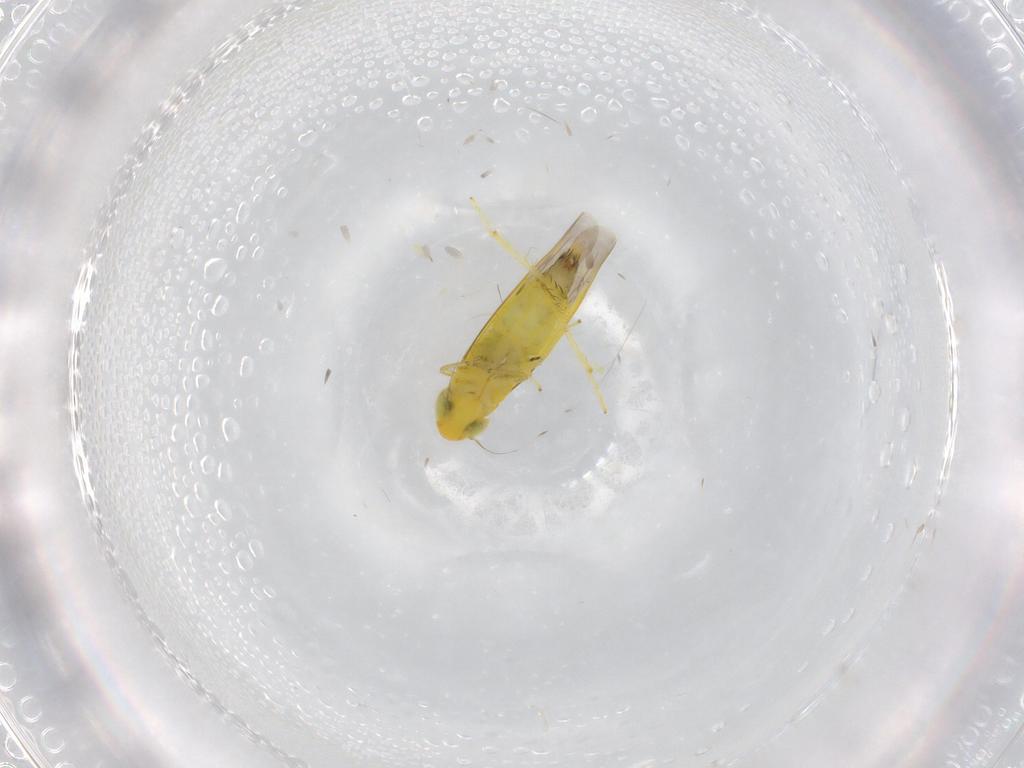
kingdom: Animalia
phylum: Arthropoda
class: Insecta
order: Hemiptera
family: Cicadellidae
